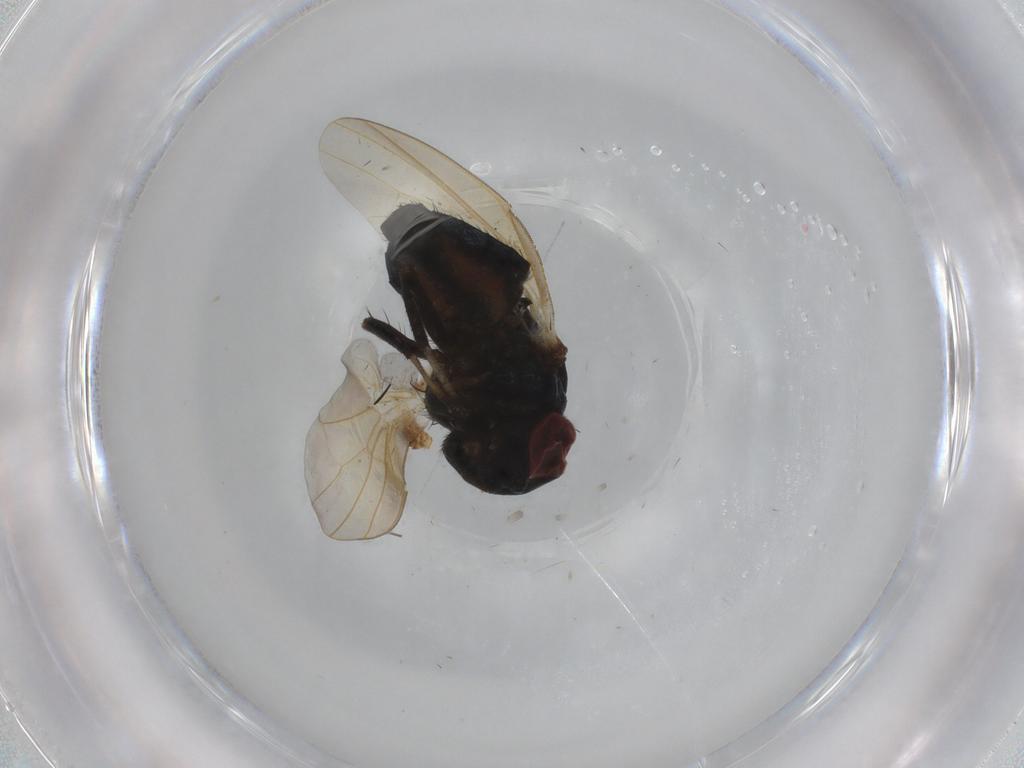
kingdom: Animalia
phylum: Arthropoda
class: Insecta
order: Diptera
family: Lonchaeidae
